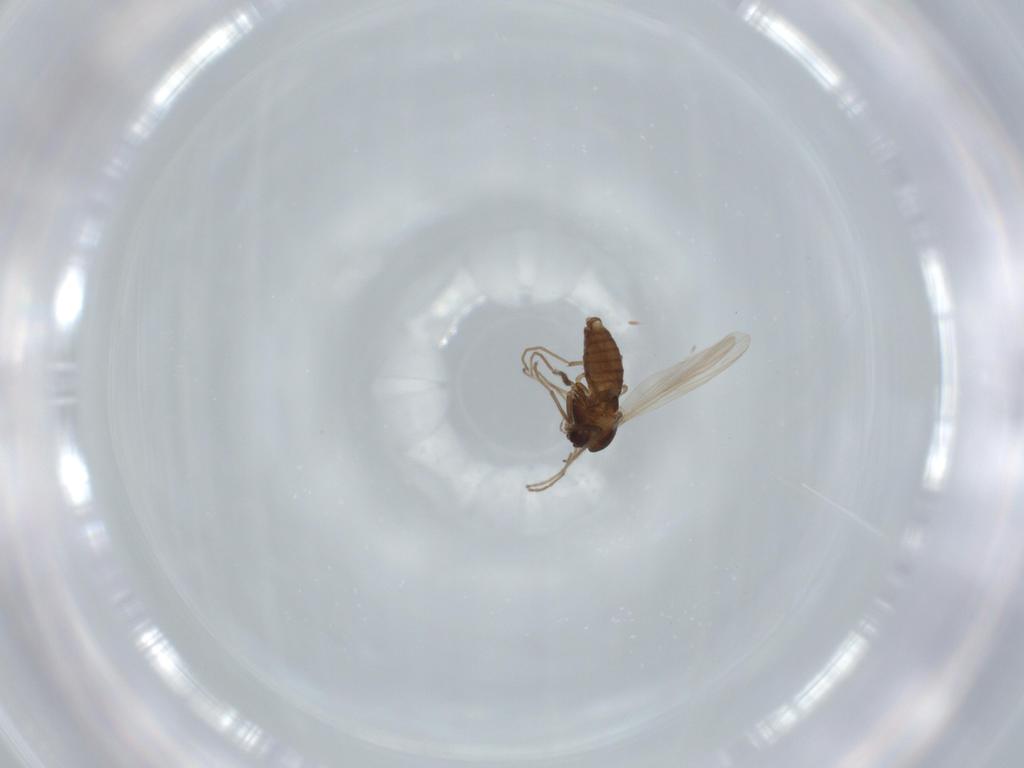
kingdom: Animalia
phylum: Arthropoda
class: Insecta
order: Diptera
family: Chironomidae
